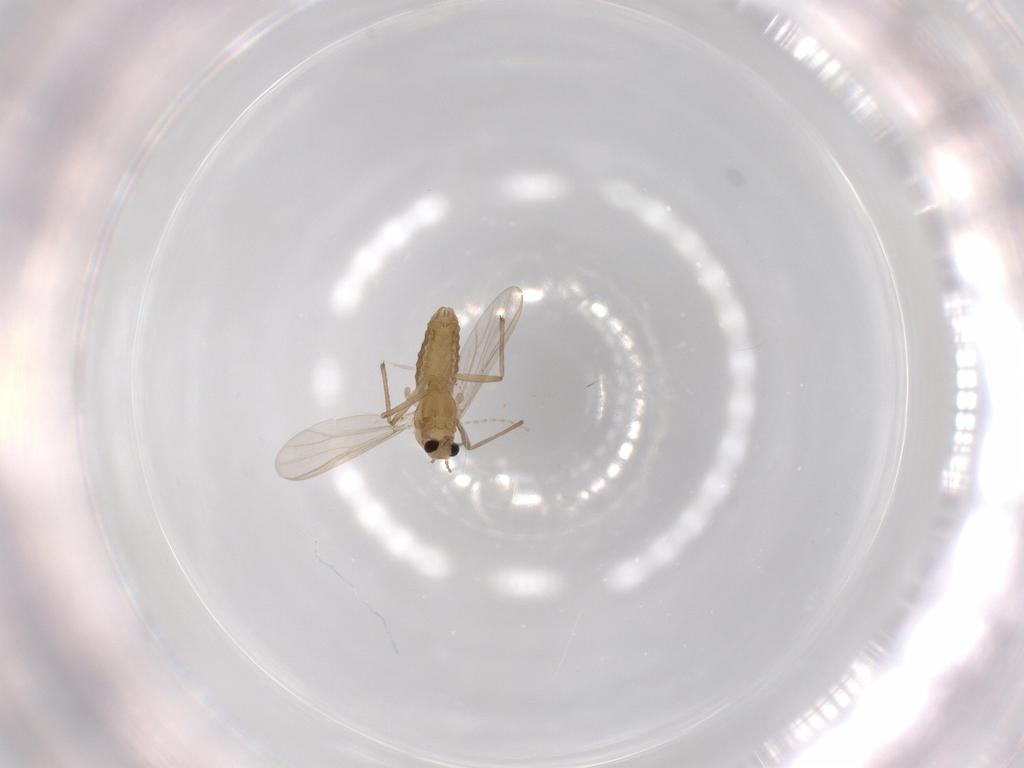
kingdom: Animalia
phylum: Arthropoda
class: Insecta
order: Diptera
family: Chironomidae
